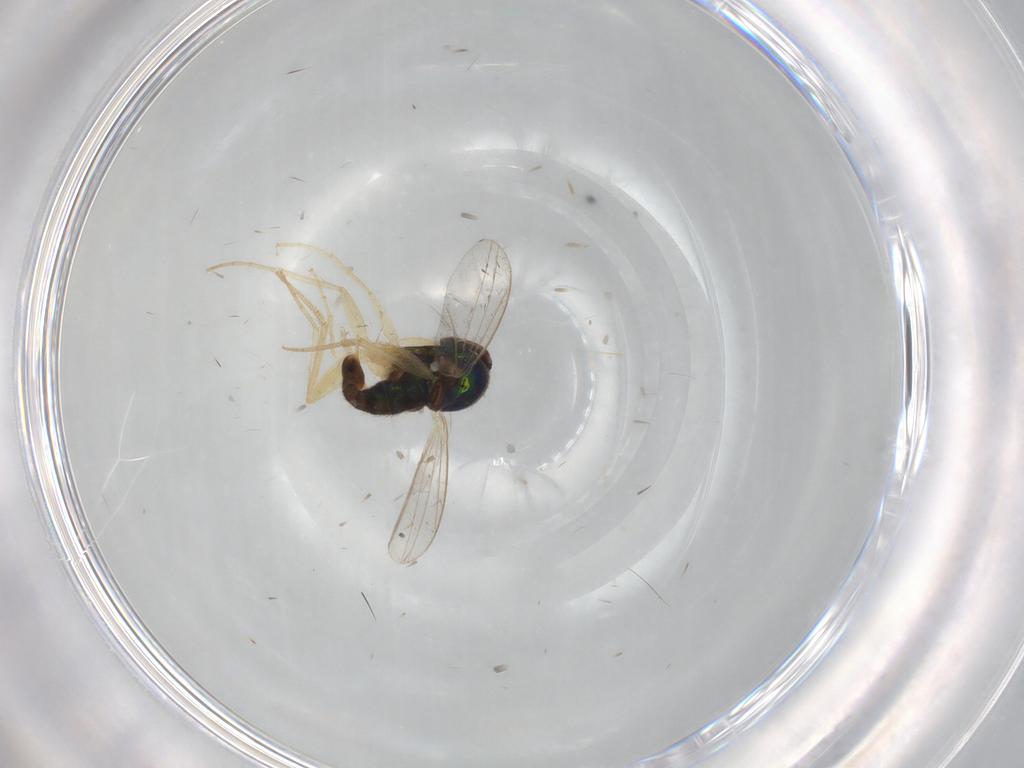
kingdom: Animalia
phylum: Arthropoda
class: Insecta
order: Diptera
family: Dolichopodidae
